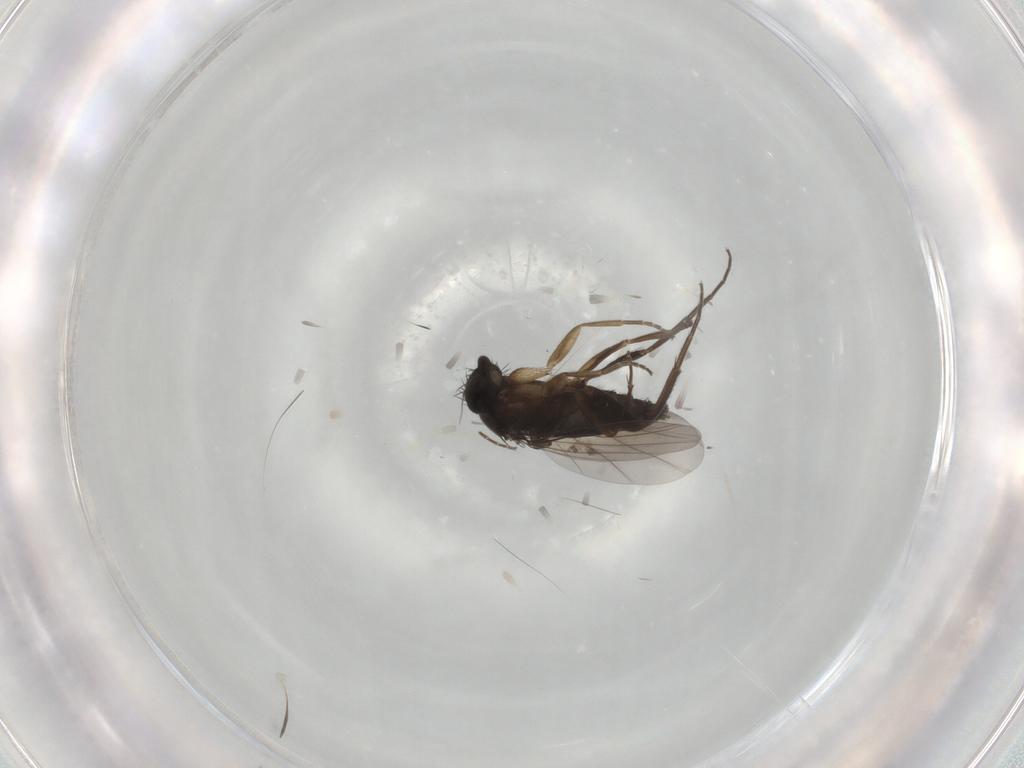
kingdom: Animalia
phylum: Arthropoda
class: Insecta
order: Diptera
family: Phoridae
